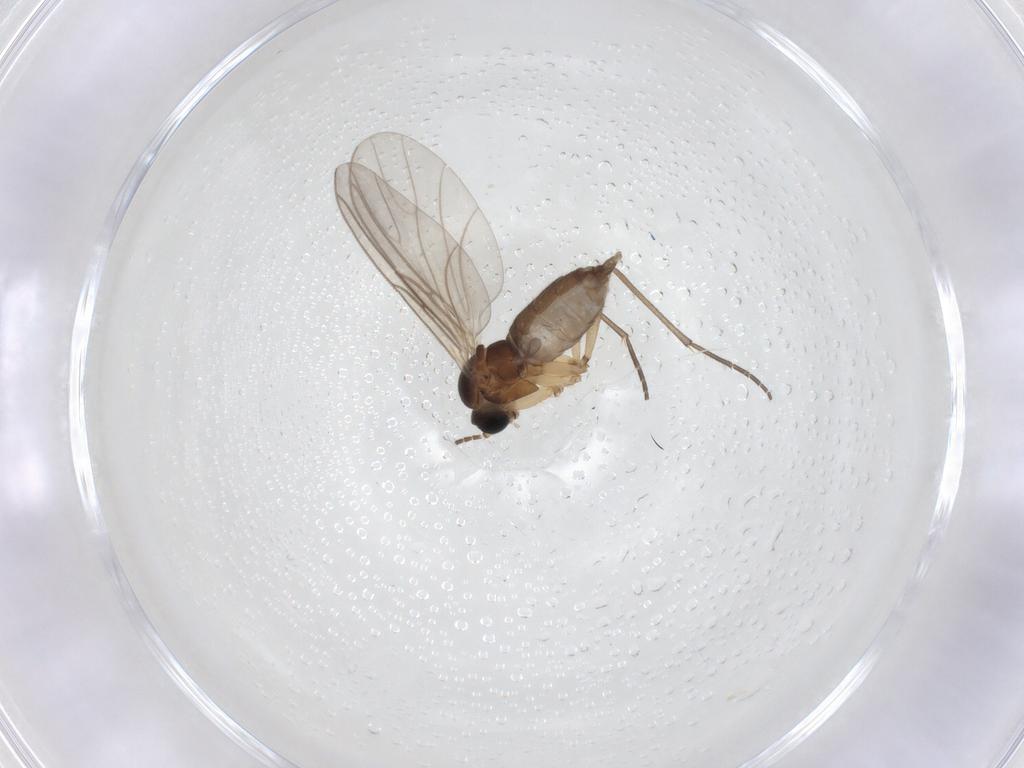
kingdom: Animalia
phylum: Arthropoda
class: Insecta
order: Diptera
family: Sciaridae
